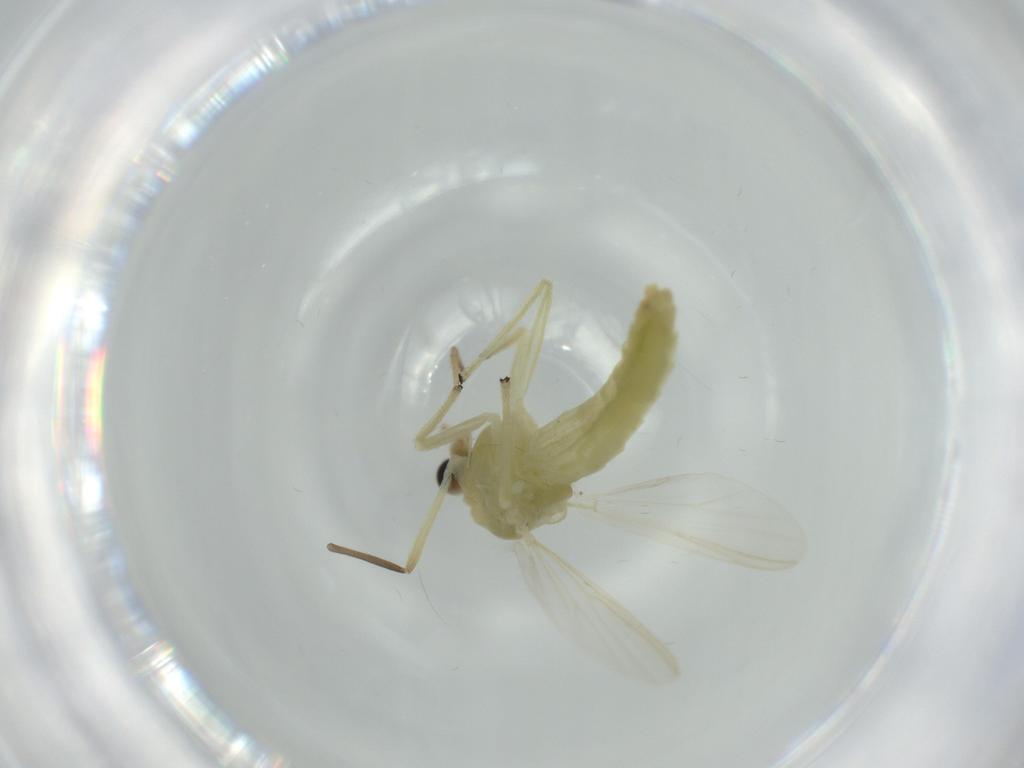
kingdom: Animalia
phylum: Arthropoda
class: Insecta
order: Diptera
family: Chironomidae
